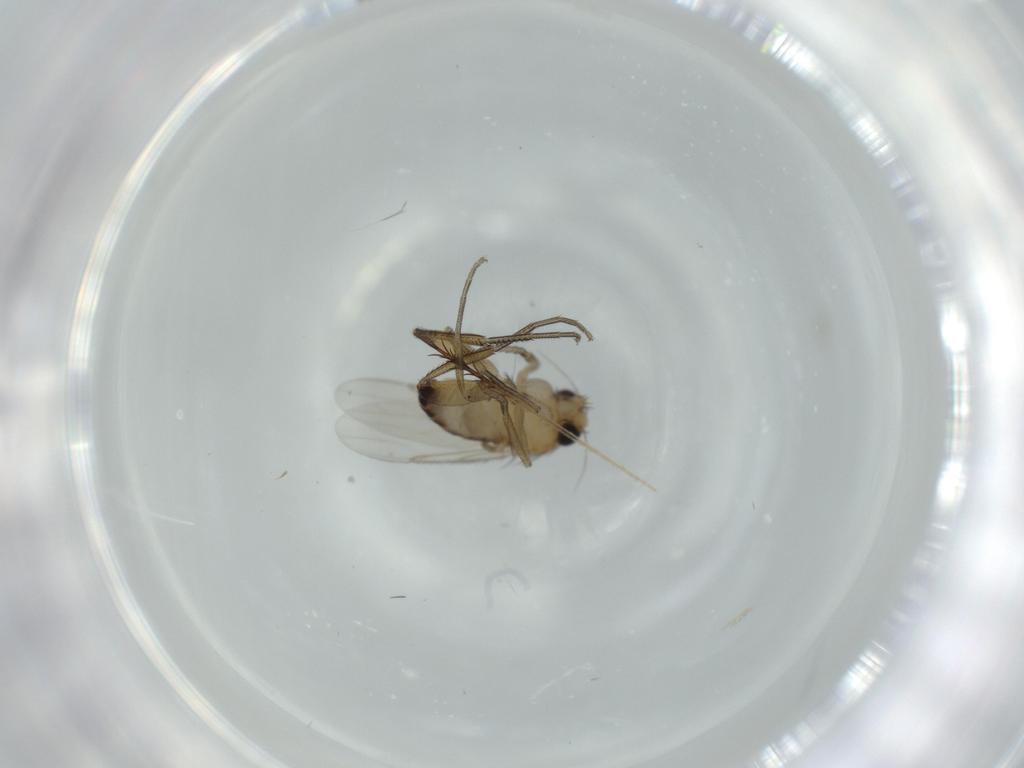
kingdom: Animalia
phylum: Arthropoda
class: Insecta
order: Diptera
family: Phoridae
